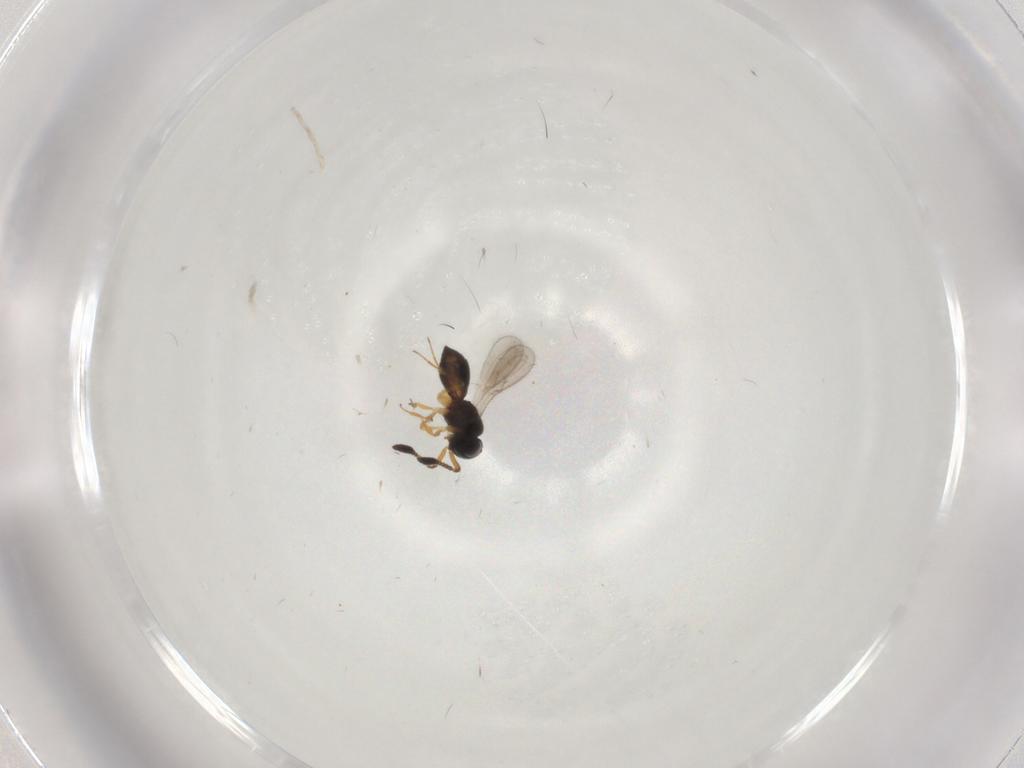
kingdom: Animalia
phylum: Arthropoda
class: Insecta
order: Hymenoptera
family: Scelionidae
